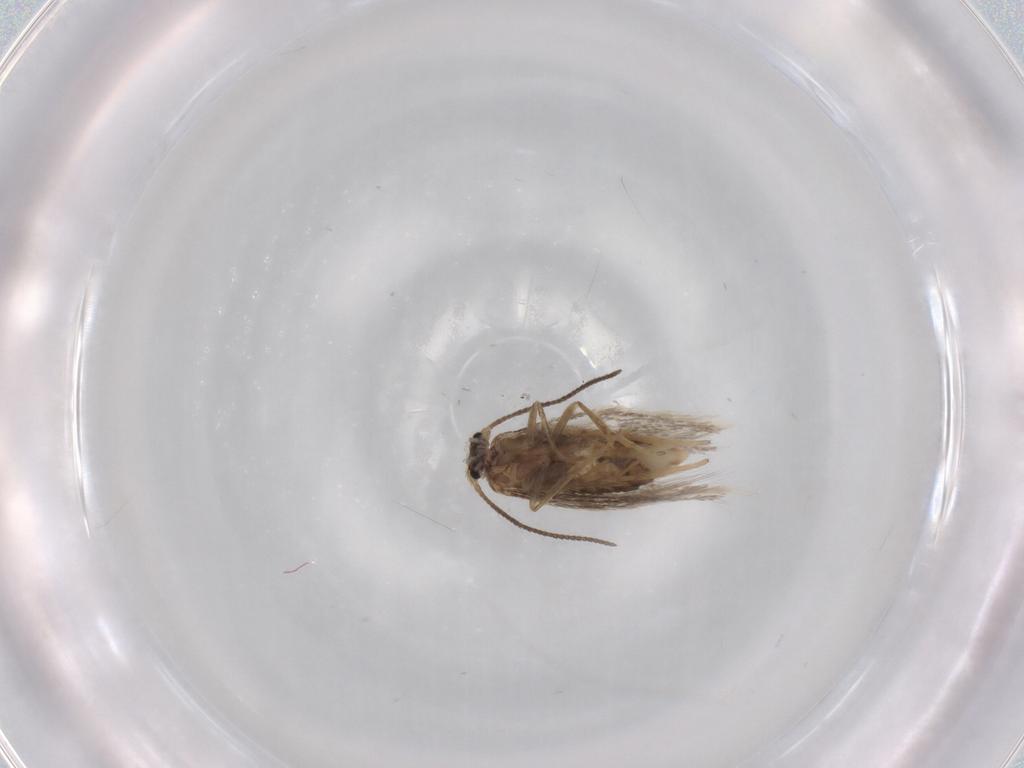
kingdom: Animalia
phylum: Arthropoda
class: Insecta
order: Lepidoptera
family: Nepticulidae
